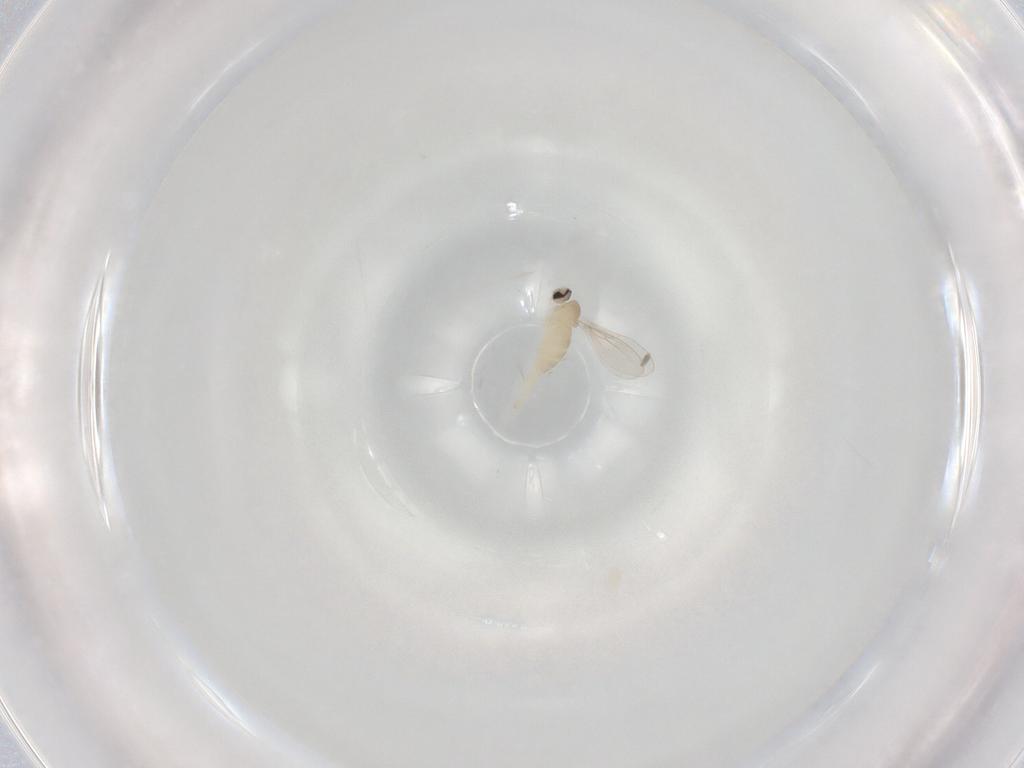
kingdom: Animalia
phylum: Arthropoda
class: Insecta
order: Diptera
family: Cecidomyiidae
